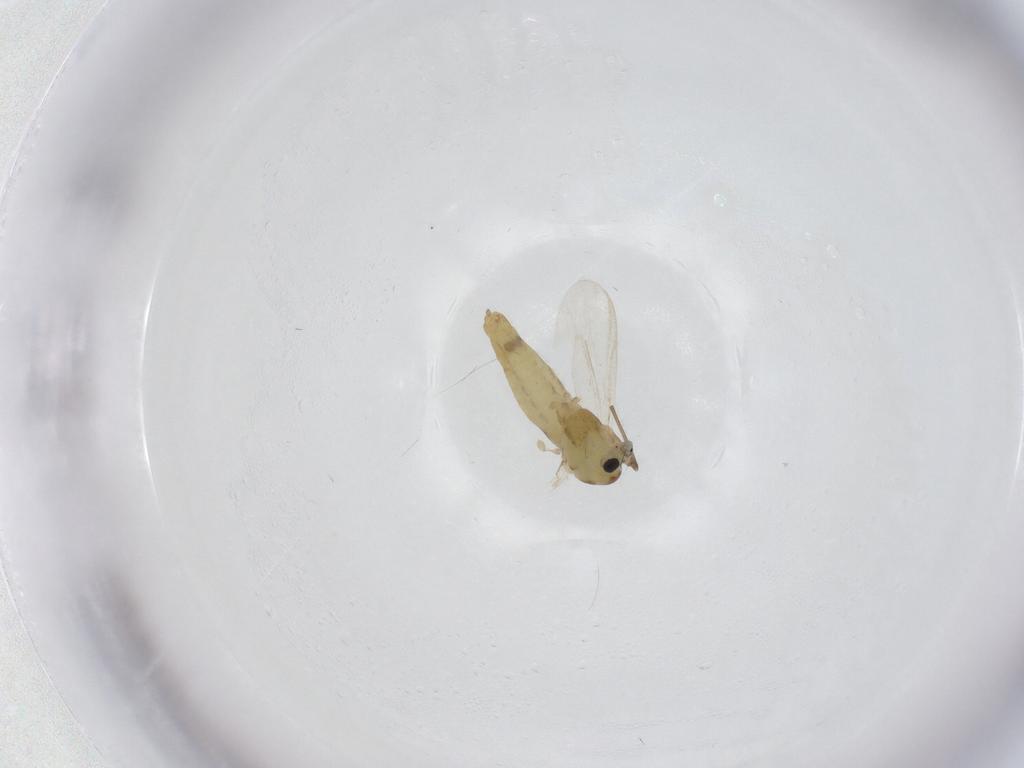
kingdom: Animalia
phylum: Arthropoda
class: Insecta
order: Diptera
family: Chironomidae
